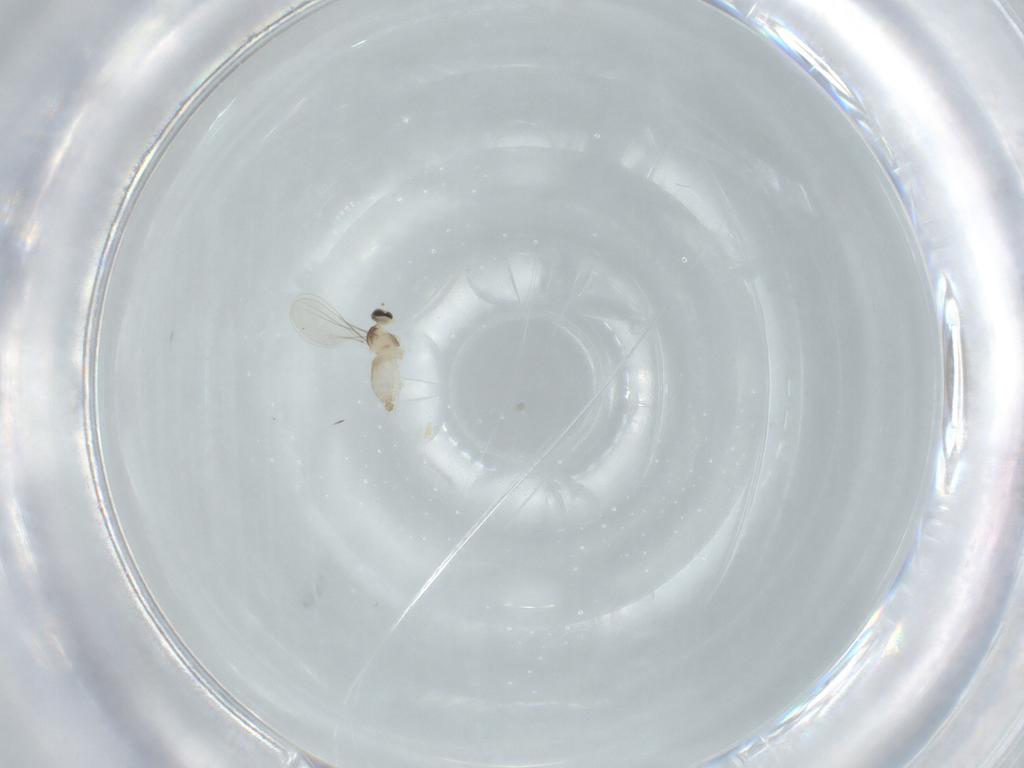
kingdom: Animalia
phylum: Arthropoda
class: Insecta
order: Diptera
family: Cecidomyiidae
